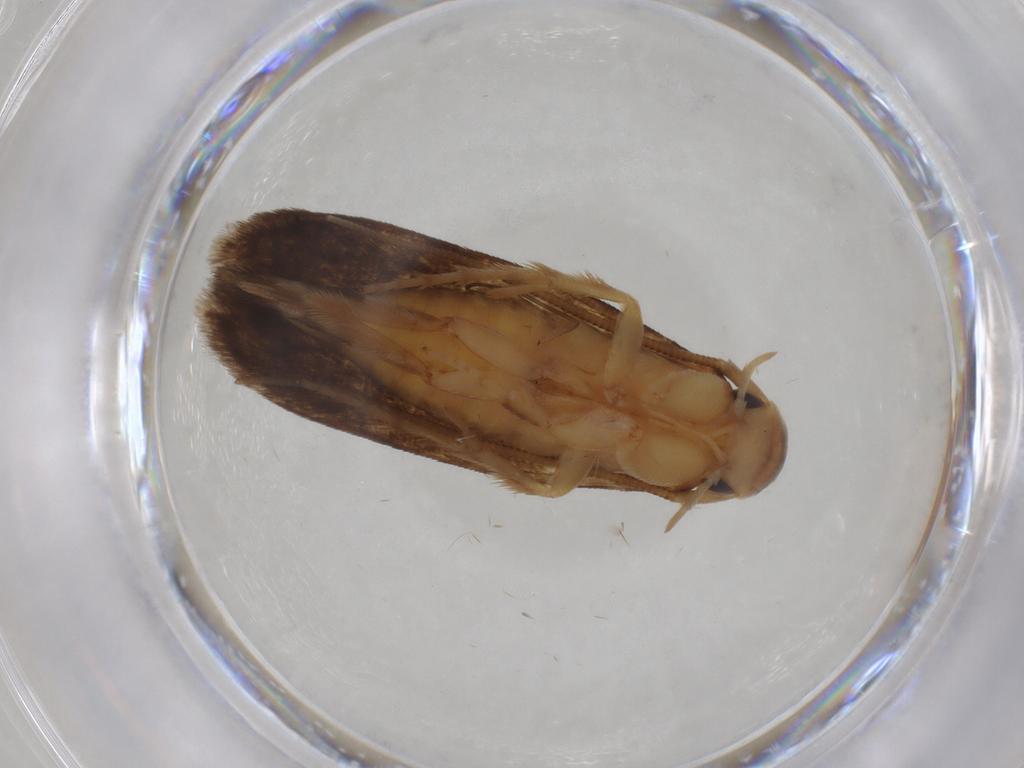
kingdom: Animalia
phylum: Arthropoda
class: Insecta
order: Lepidoptera
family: Tineidae
